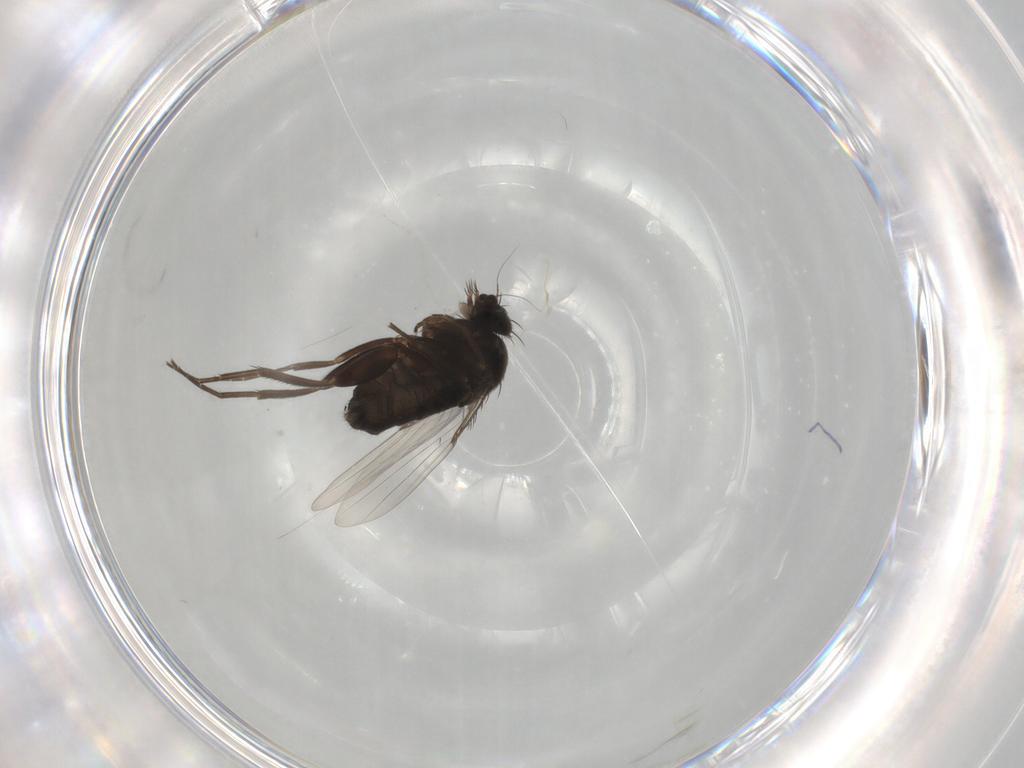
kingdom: Animalia
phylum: Arthropoda
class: Insecta
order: Diptera
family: Phoridae
